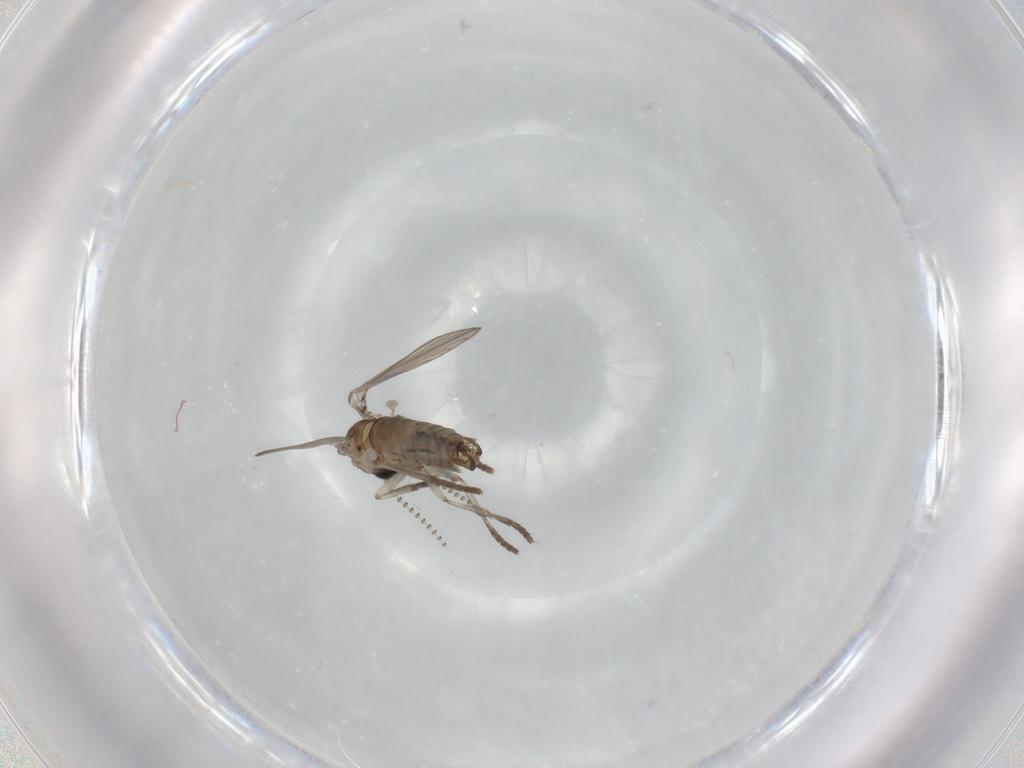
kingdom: Animalia
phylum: Arthropoda
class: Insecta
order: Diptera
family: Psychodidae
